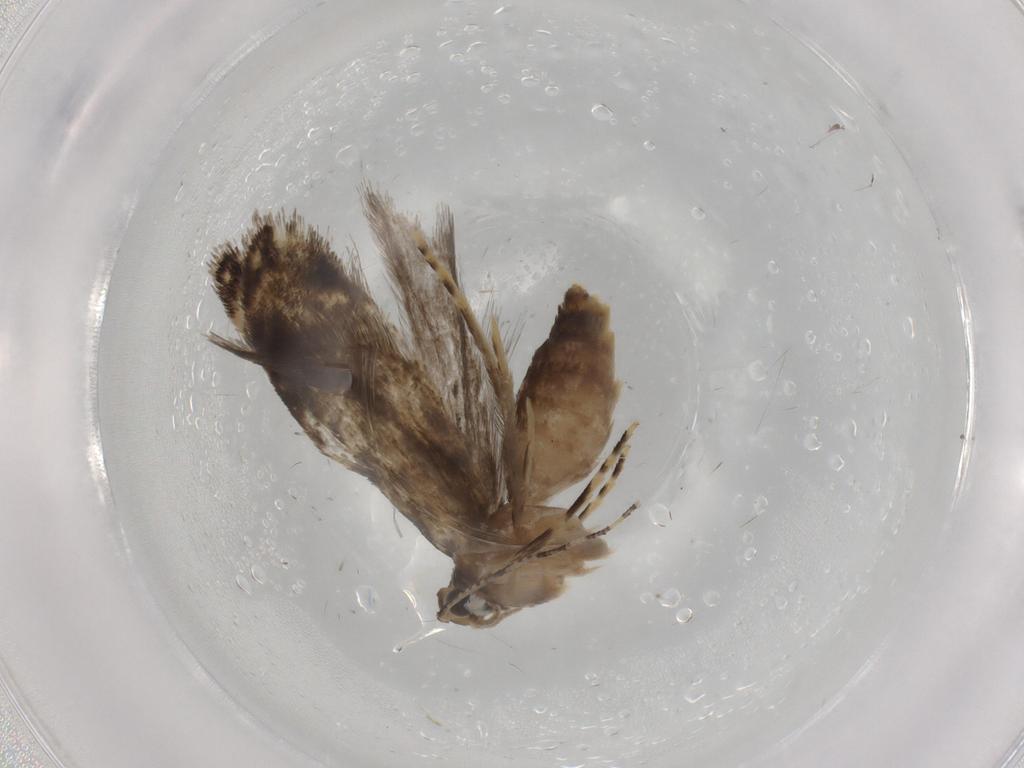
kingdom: Animalia
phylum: Arthropoda
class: Insecta
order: Lepidoptera
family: Tineidae
